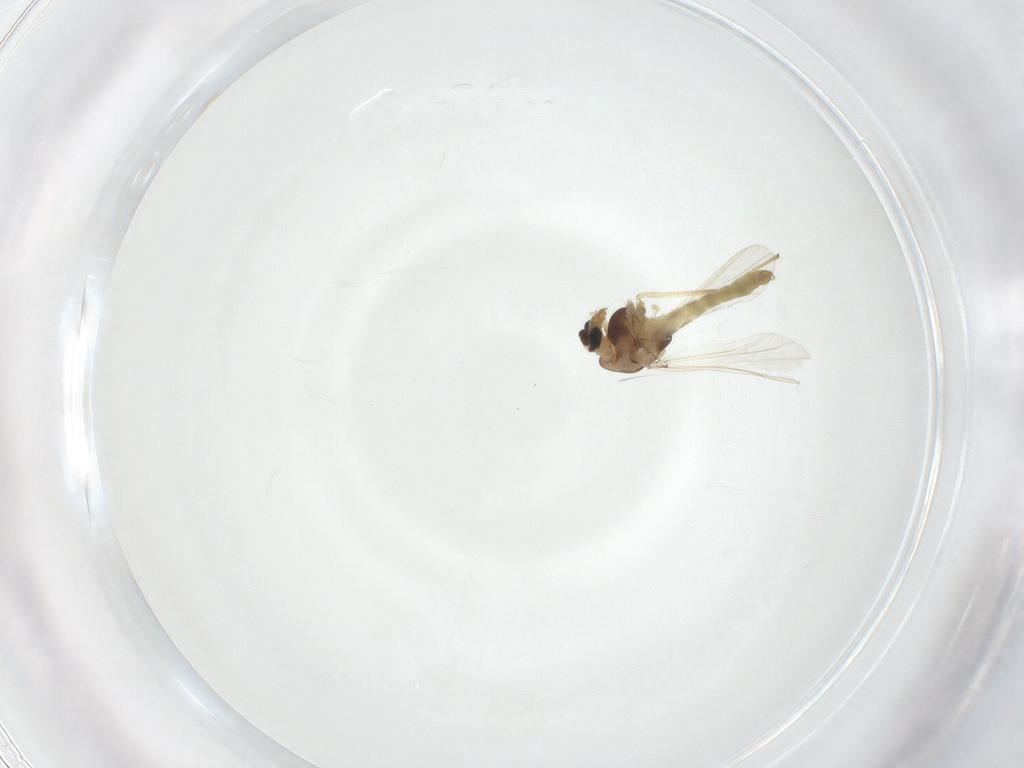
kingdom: Animalia
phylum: Arthropoda
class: Insecta
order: Diptera
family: Chironomidae
